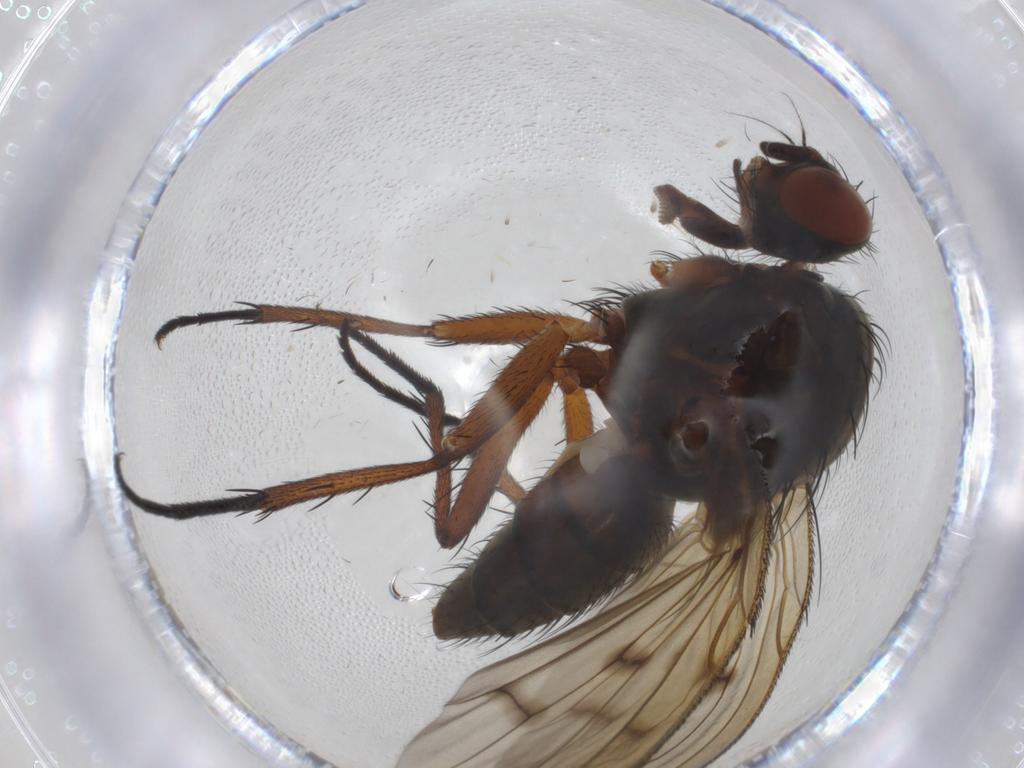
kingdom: Animalia
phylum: Arthropoda
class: Insecta
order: Diptera
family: Anthomyiidae
